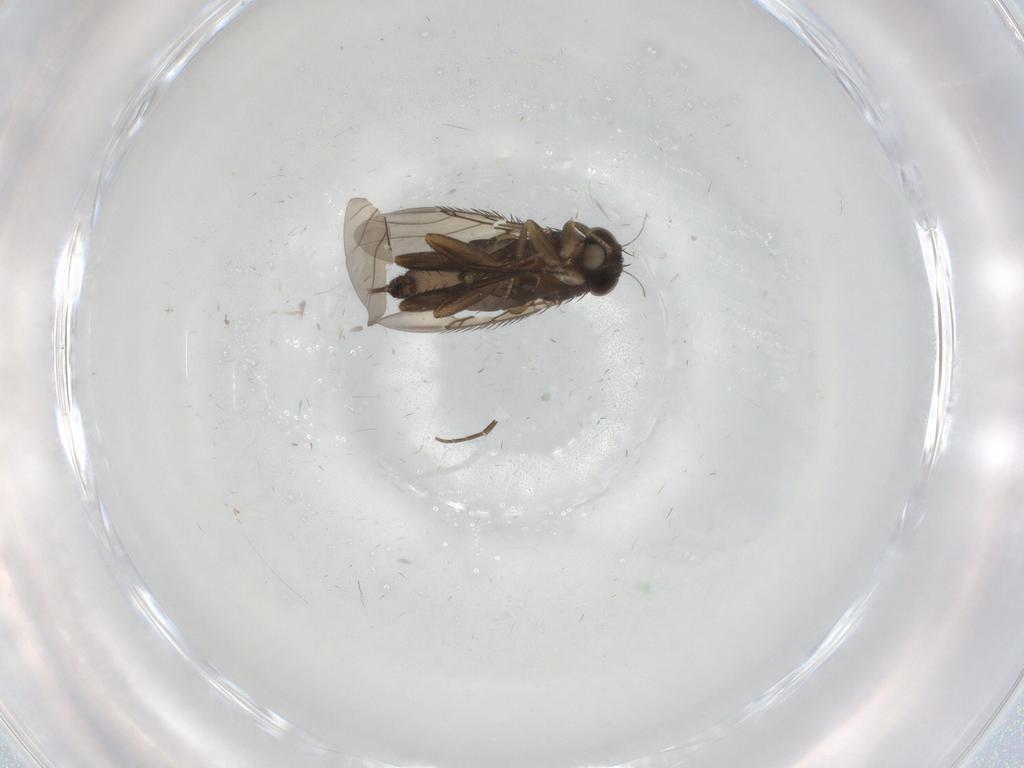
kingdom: Animalia
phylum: Arthropoda
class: Insecta
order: Diptera
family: Phoridae
